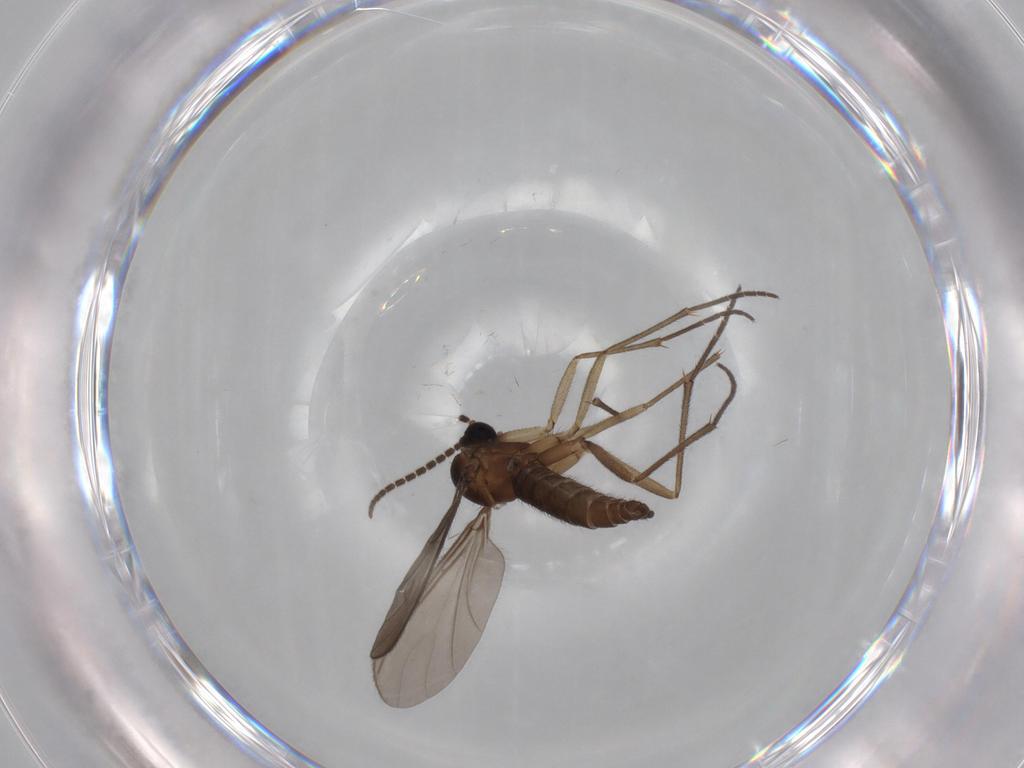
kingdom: Animalia
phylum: Arthropoda
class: Insecta
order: Diptera
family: Sciaridae
